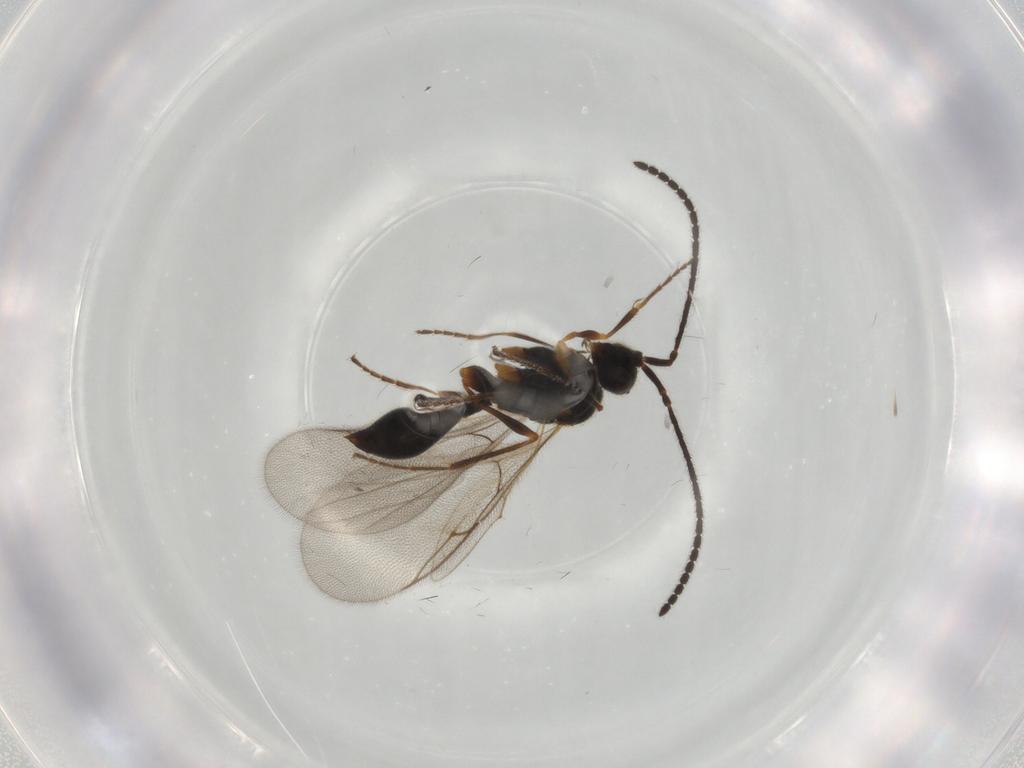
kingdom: Animalia
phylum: Arthropoda
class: Insecta
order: Hymenoptera
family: Diapriidae
